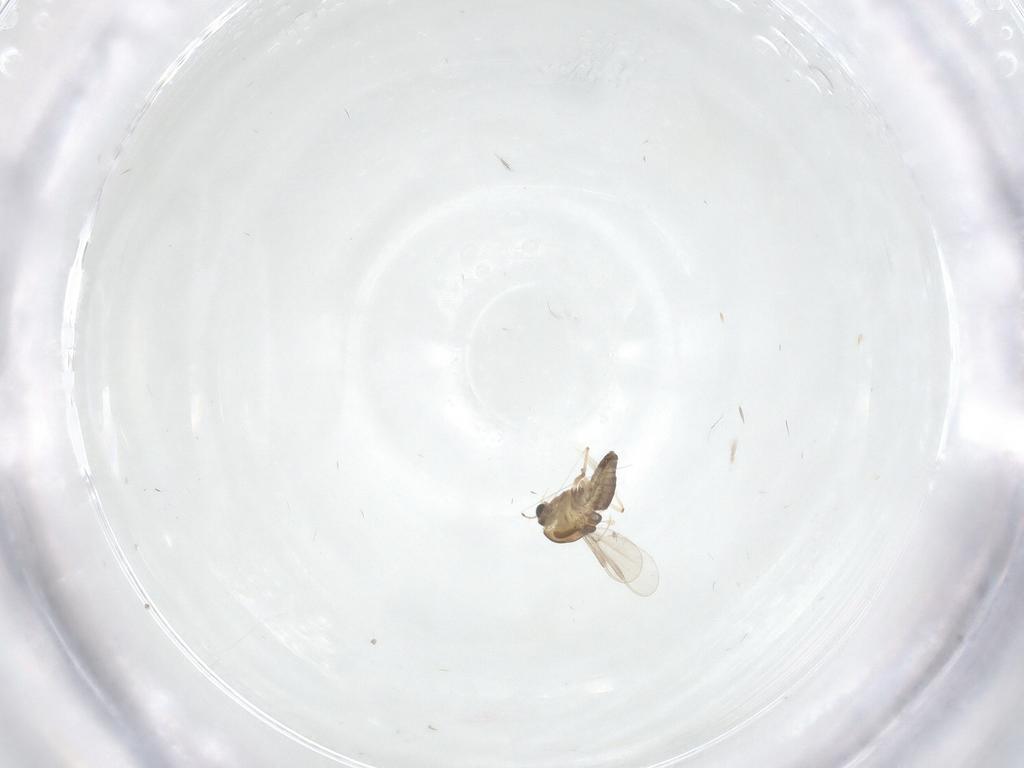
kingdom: Animalia
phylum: Arthropoda
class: Insecta
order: Diptera
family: Chironomidae
